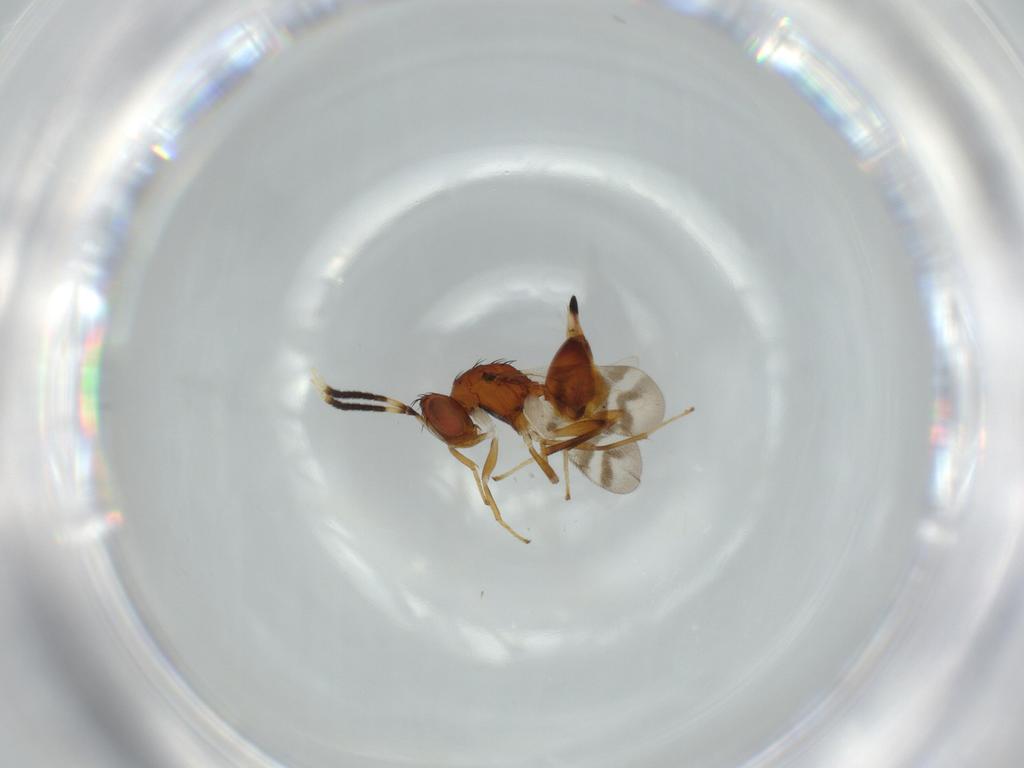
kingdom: Animalia
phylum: Arthropoda
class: Insecta
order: Hymenoptera
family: Diparidae
